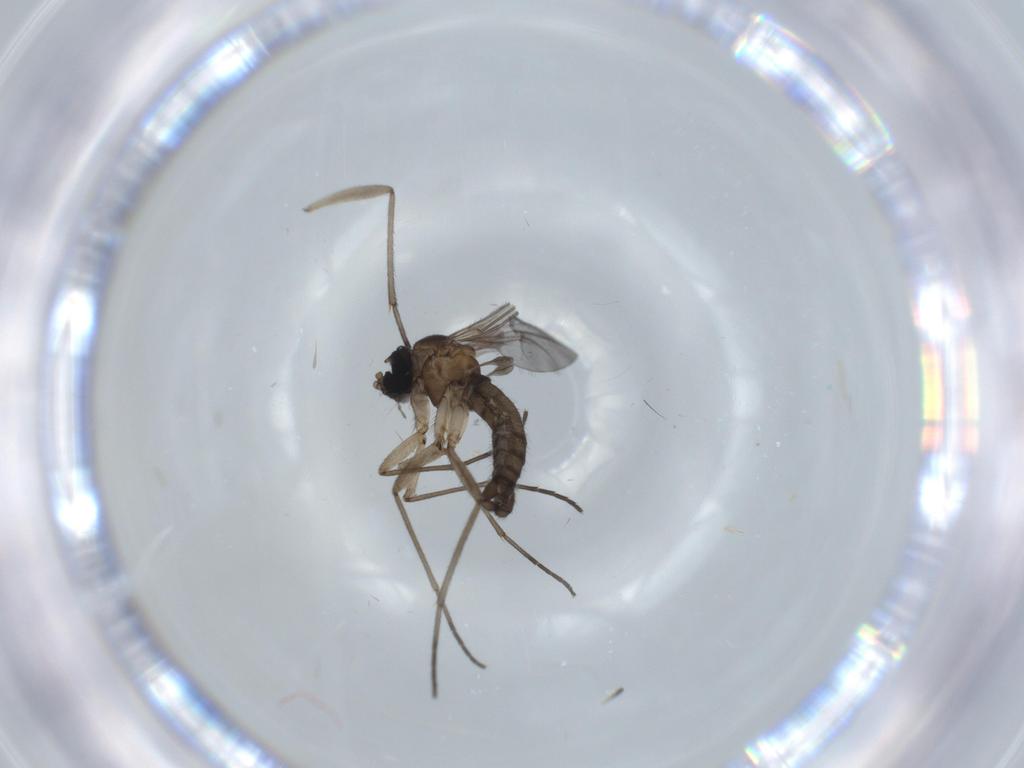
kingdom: Animalia
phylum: Arthropoda
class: Insecta
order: Diptera
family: Sciaridae
